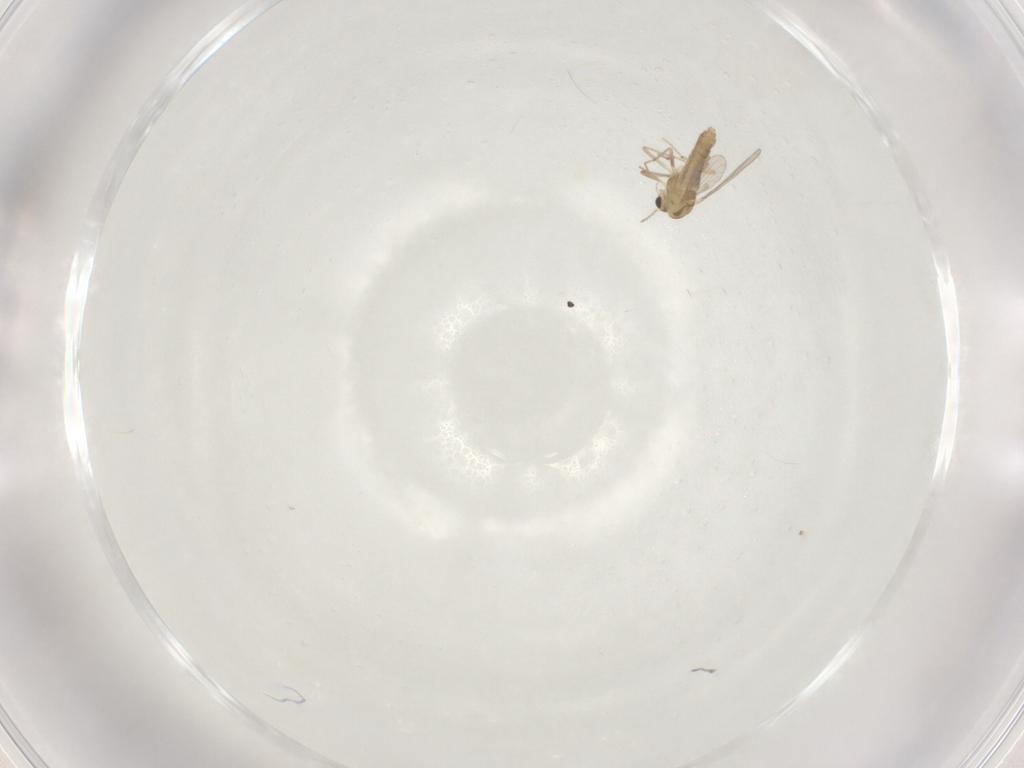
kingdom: Animalia
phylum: Arthropoda
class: Insecta
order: Diptera
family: Chironomidae
